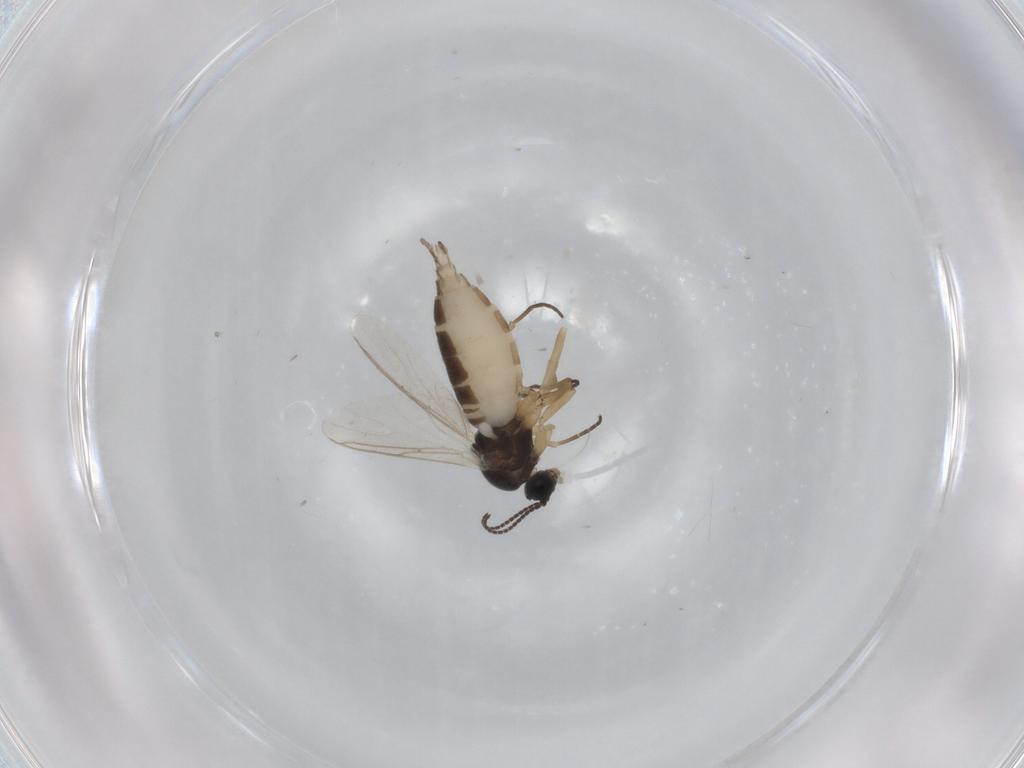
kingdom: Animalia
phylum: Arthropoda
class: Insecta
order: Diptera
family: Sciaridae
